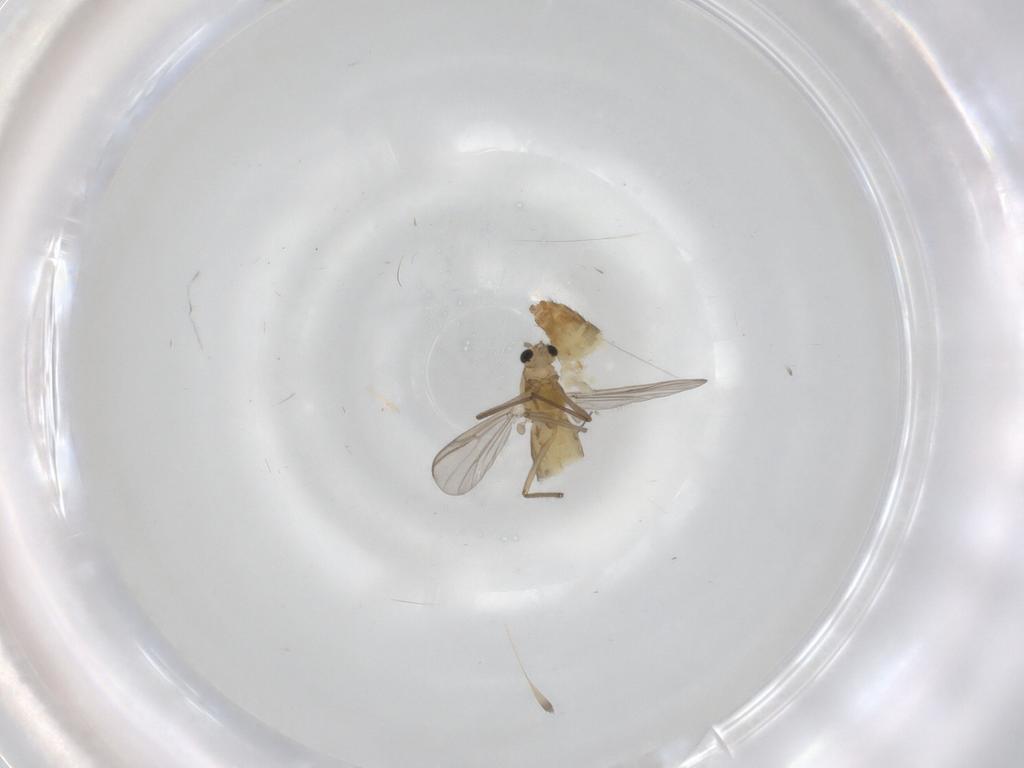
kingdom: Animalia
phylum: Arthropoda
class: Insecta
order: Diptera
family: Chironomidae
